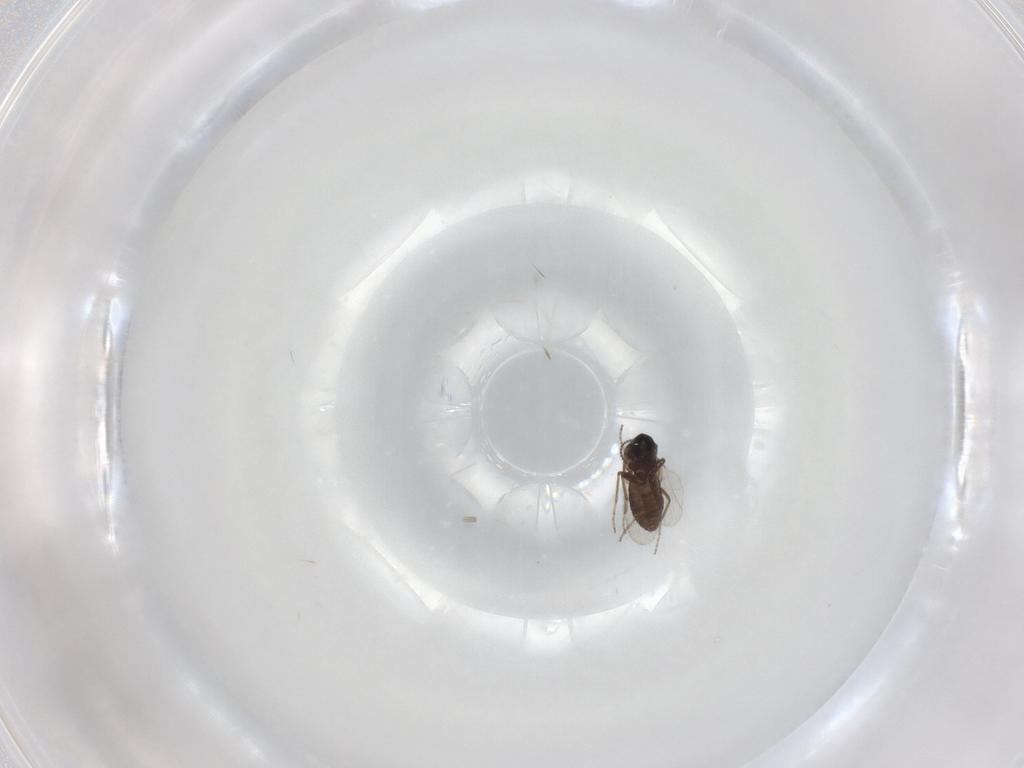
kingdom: Animalia
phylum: Arthropoda
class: Insecta
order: Diptera
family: Ceratopogonidae
